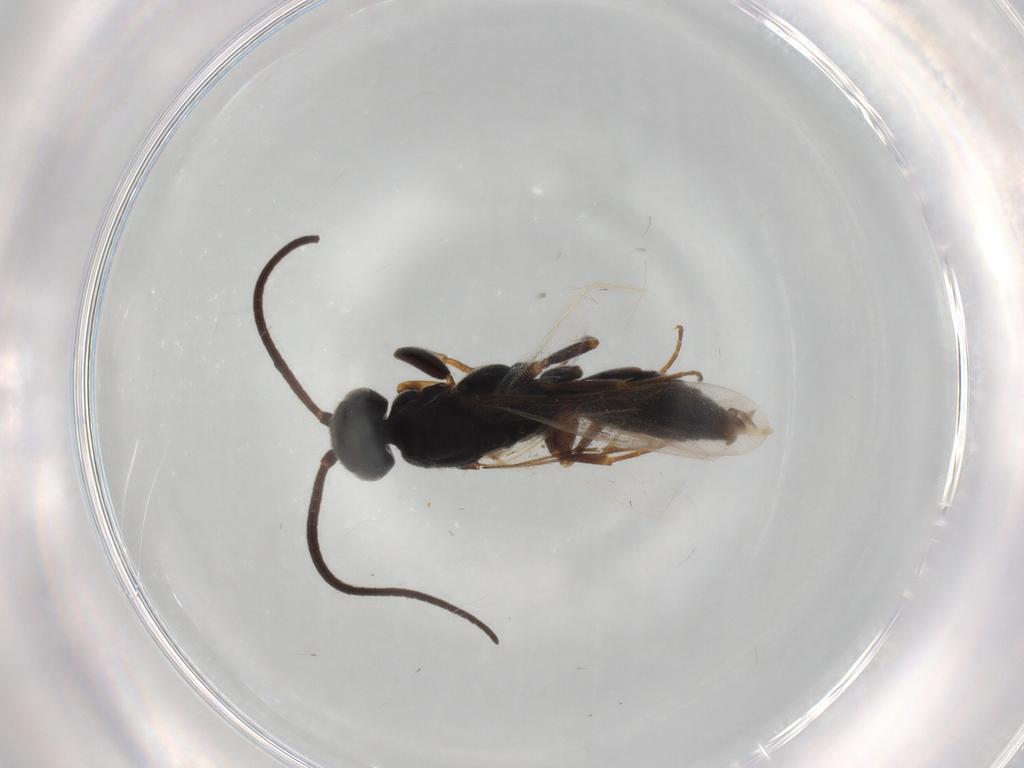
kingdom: Animalia
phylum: Arthropoda
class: Insecta
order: Hymenoptera
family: Sclerogibbidae
